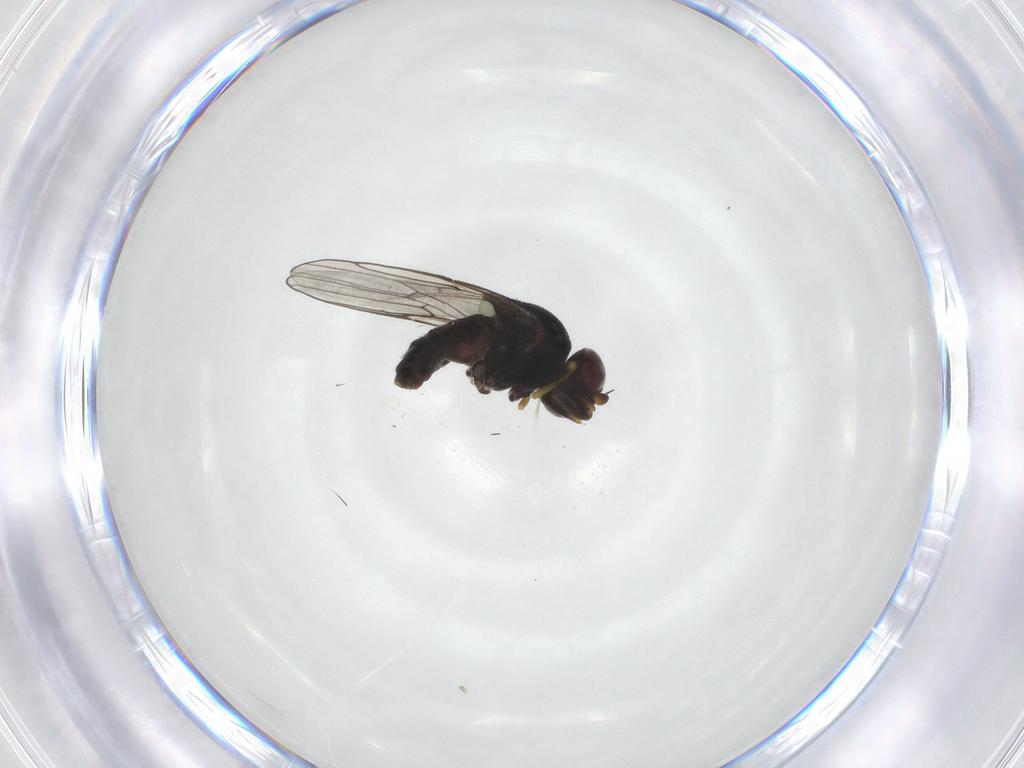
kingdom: Animalia
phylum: Arthropoda
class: Insecta
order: Diptera
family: Chloropidae
